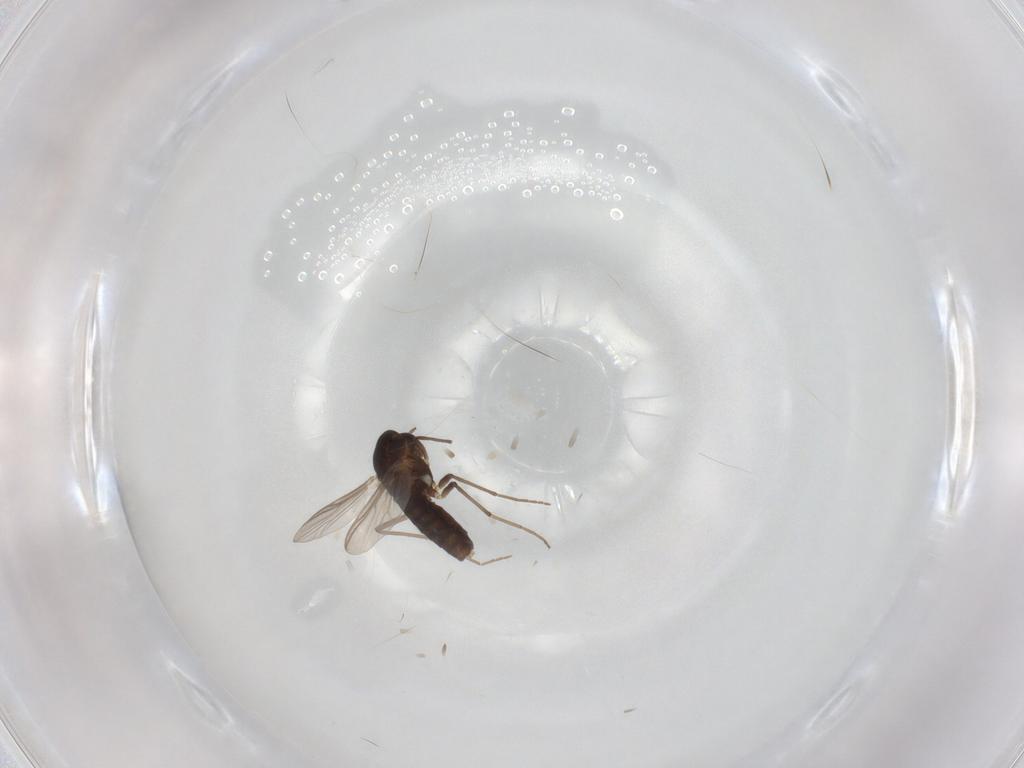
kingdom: Animalia
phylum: Arthropoda
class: Insecta
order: Diptera
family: Chironomidae
